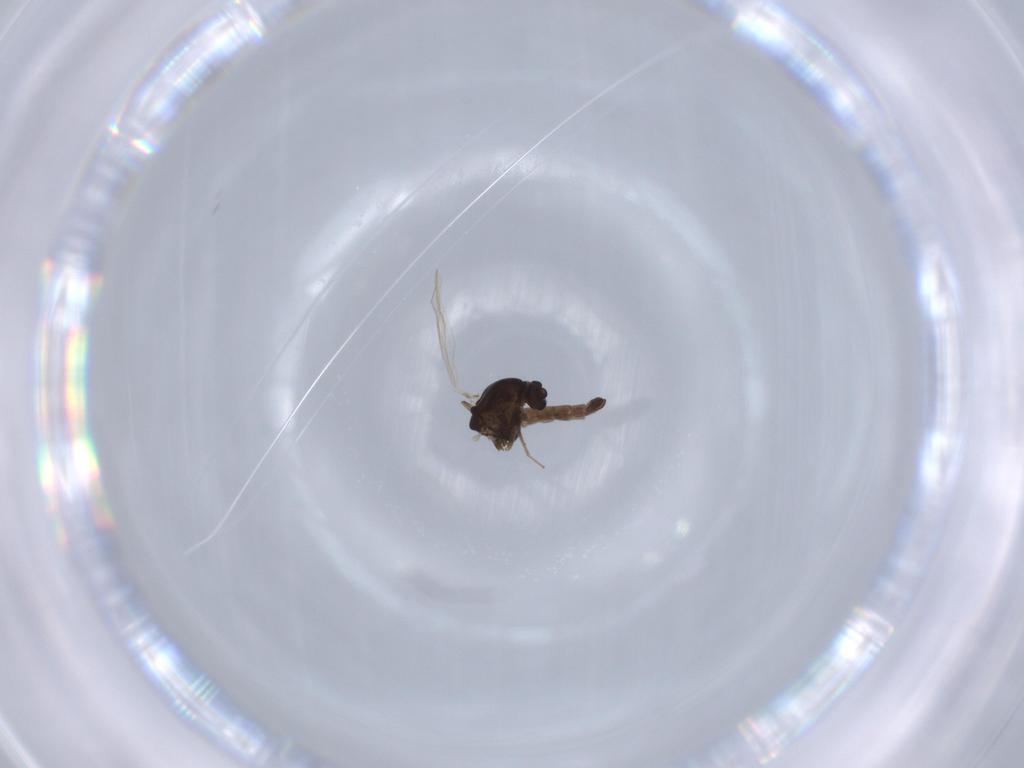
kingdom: Animalia
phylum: Arthropoda
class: Insecta
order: Diptera
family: Chironomidae
